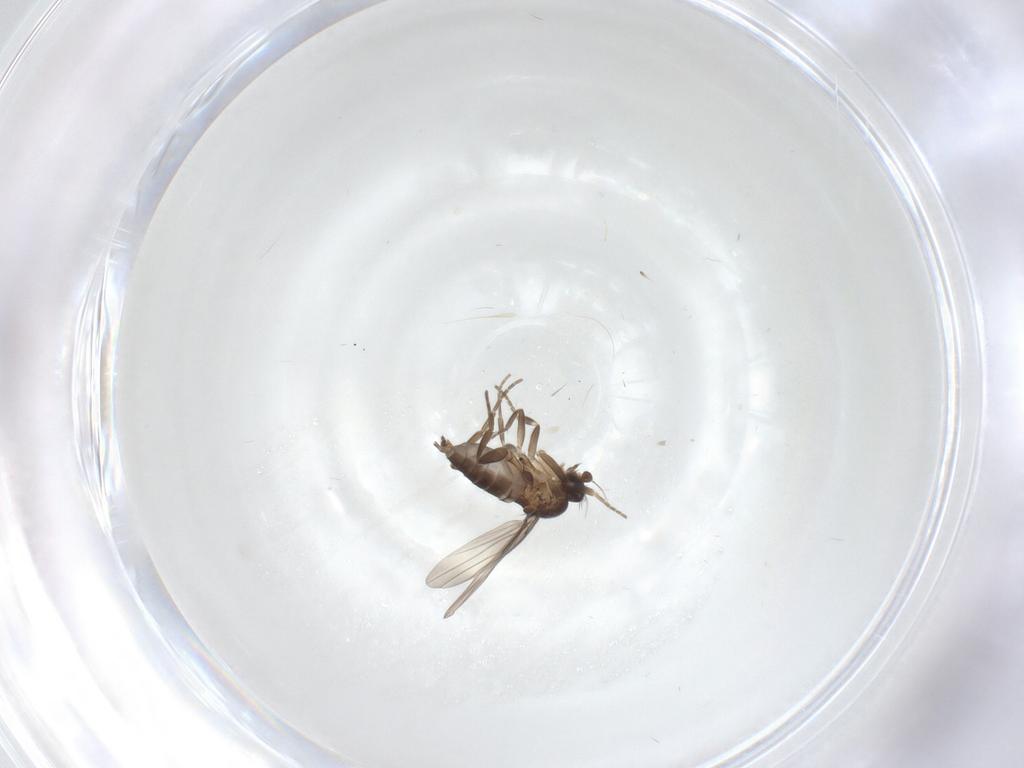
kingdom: Animalia
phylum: Arthropoda
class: Insecta
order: Diptera
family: Phoridae
